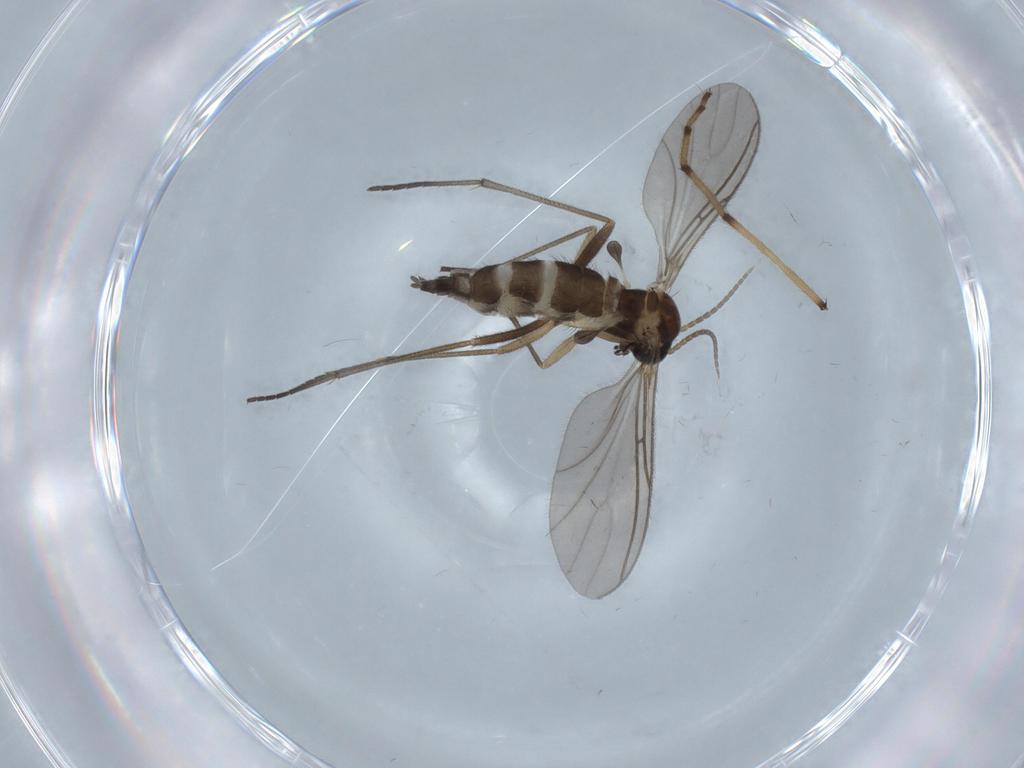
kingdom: Animalia
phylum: Arthropoda
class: Insecta
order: Diptera
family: Sciaridae
